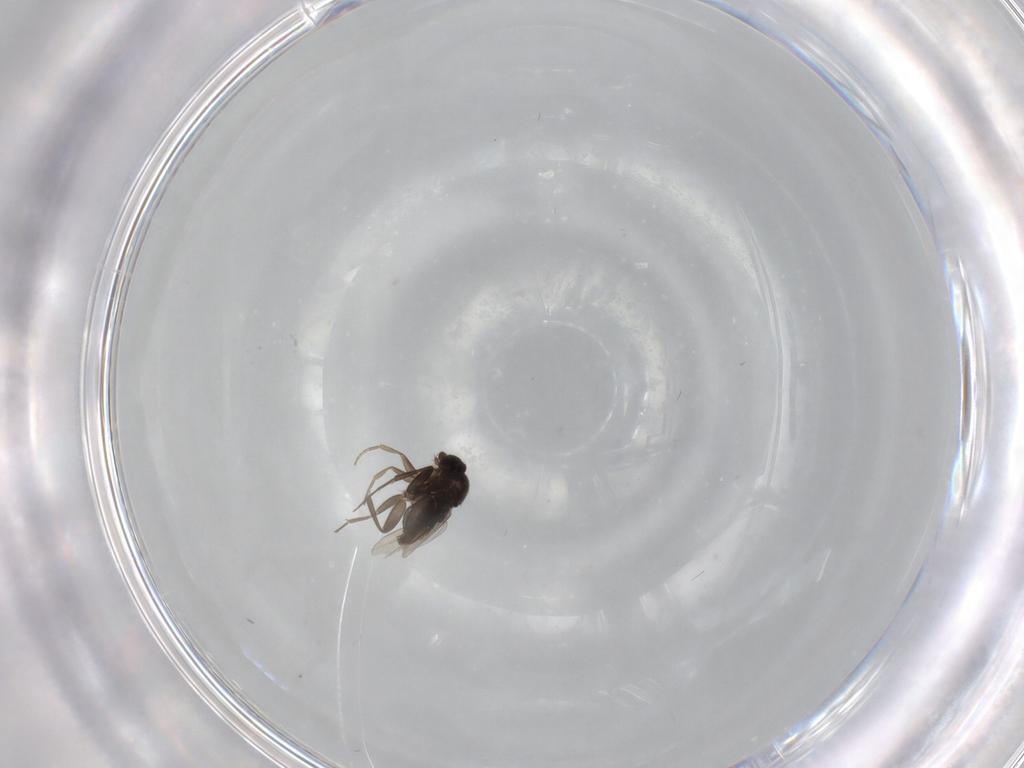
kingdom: Animalia
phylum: Arthropoda
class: Insecta
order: Diptera
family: Phoridae
